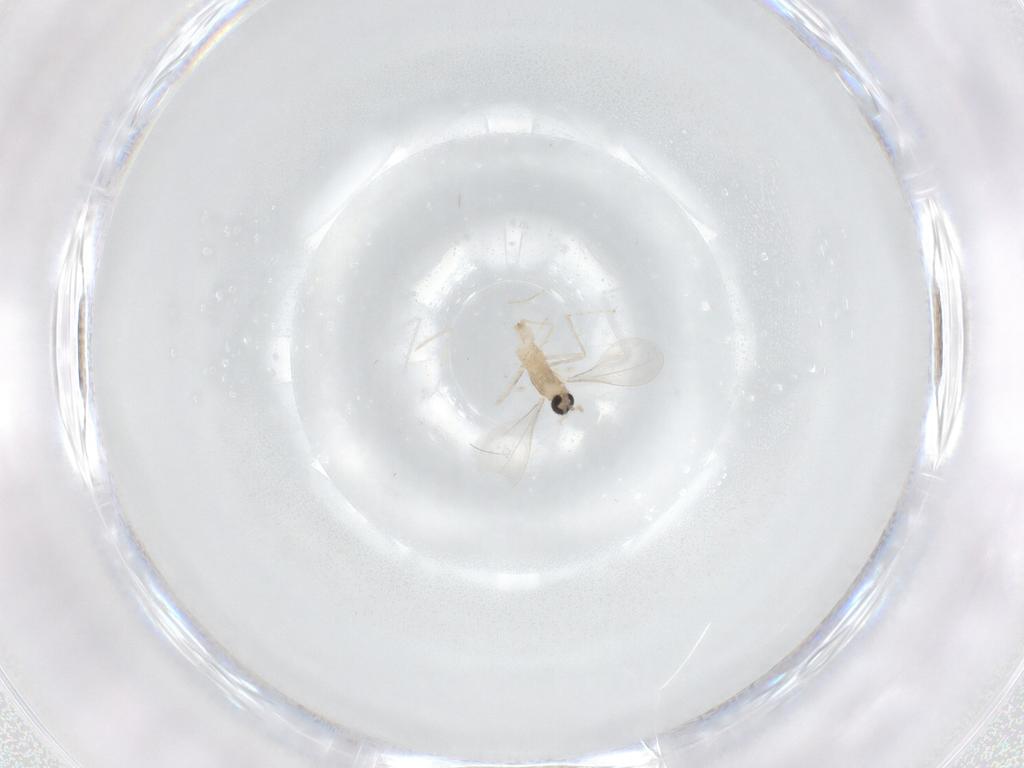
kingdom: Animalia
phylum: Arthropoda
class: Insecta
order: Diptera
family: Cecidomyiidae
